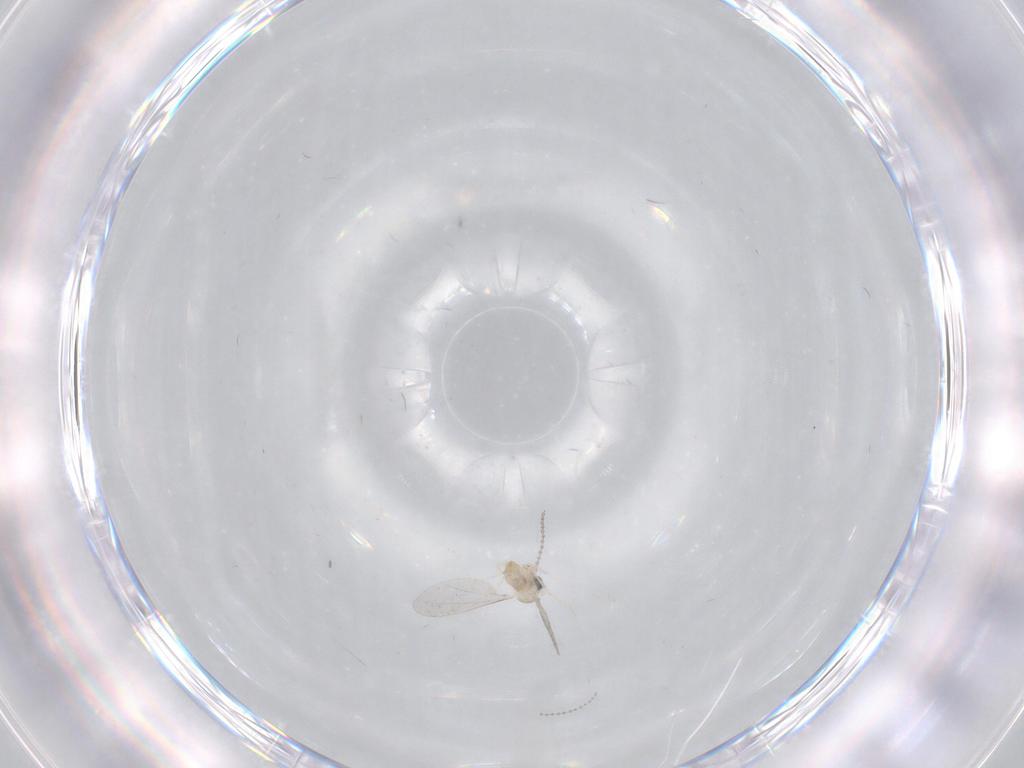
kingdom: Animalia
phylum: Arthropoda
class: Insecta
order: Diptera
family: Cecidomyiidae
